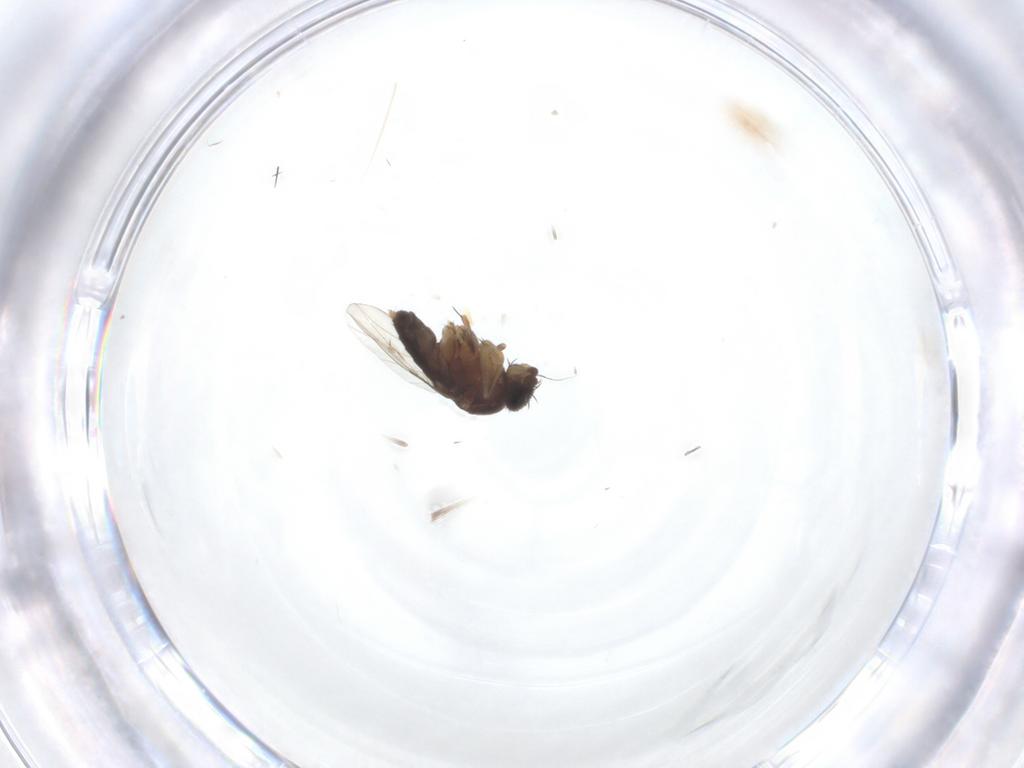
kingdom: Animalia
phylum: Arthropoda
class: Insecta
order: Diptera
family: Phoridae
